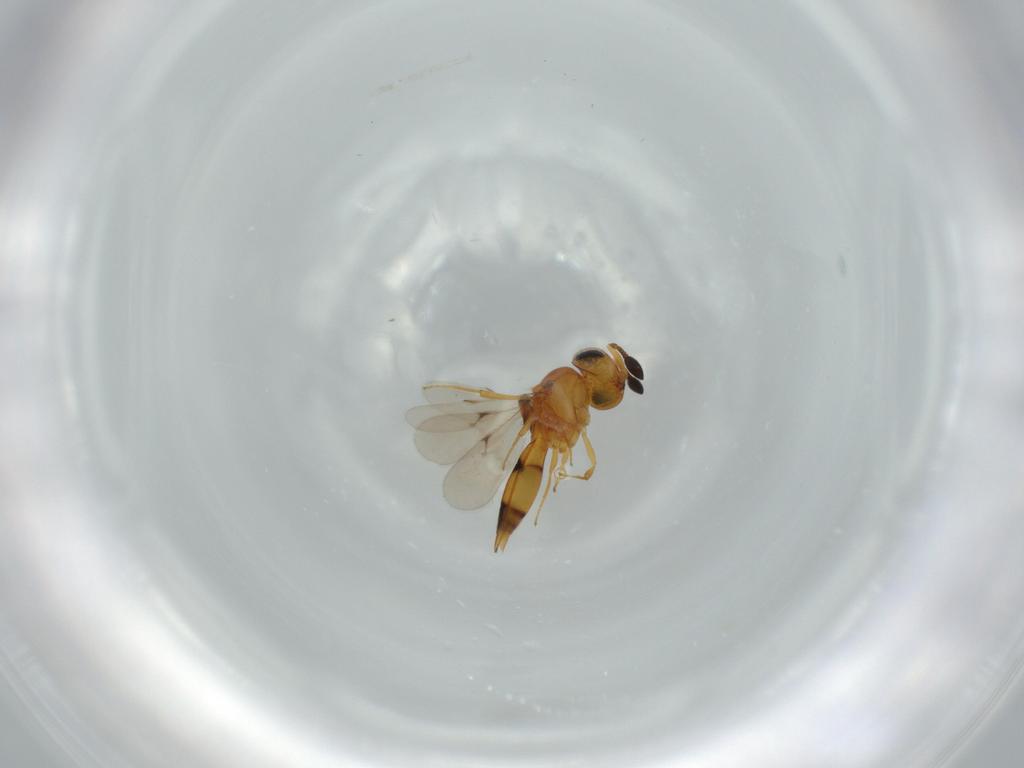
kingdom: Animalia
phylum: Arthropoda
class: Insecta
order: Hymenoptera
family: Scelionidae
